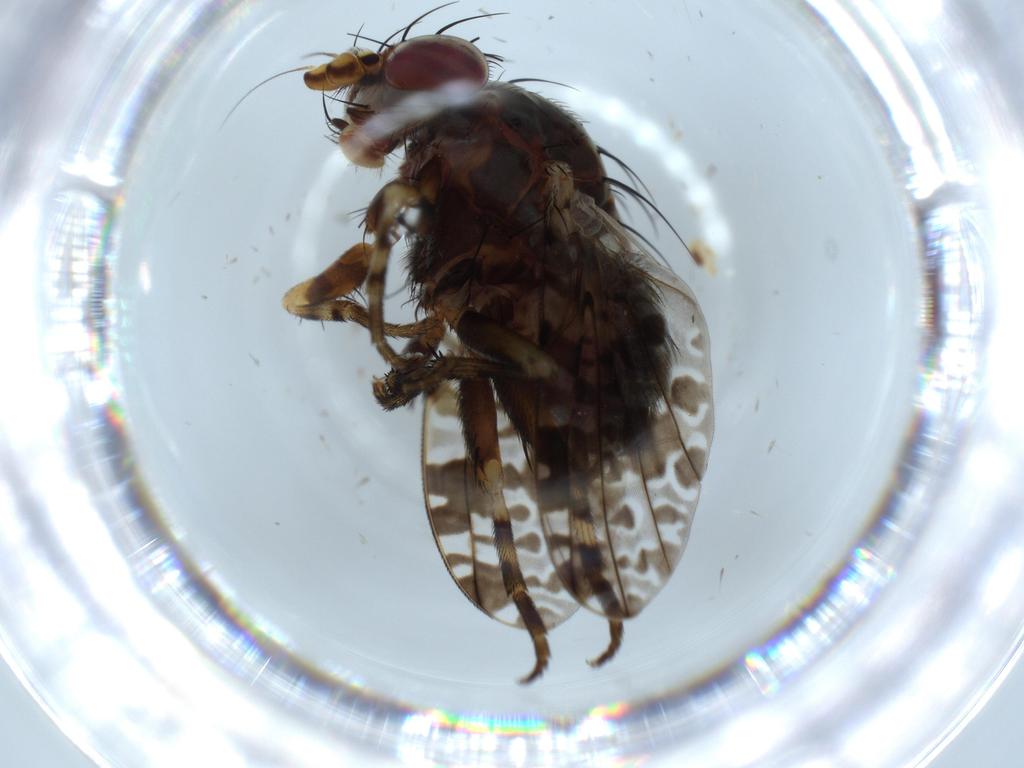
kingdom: Animalia
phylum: Arthropoda
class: Insecta
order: Diptera
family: Odiniidae
